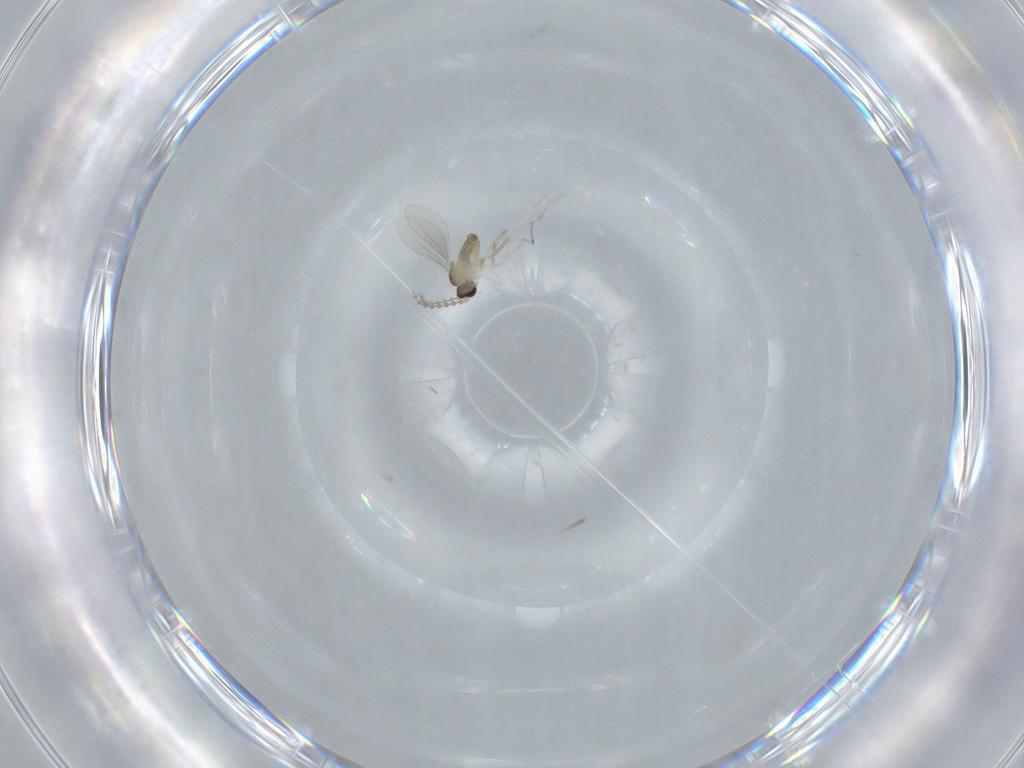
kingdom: Animalia
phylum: Arthropoda
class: Insecta
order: Diptera
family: Cecidomyiidae
